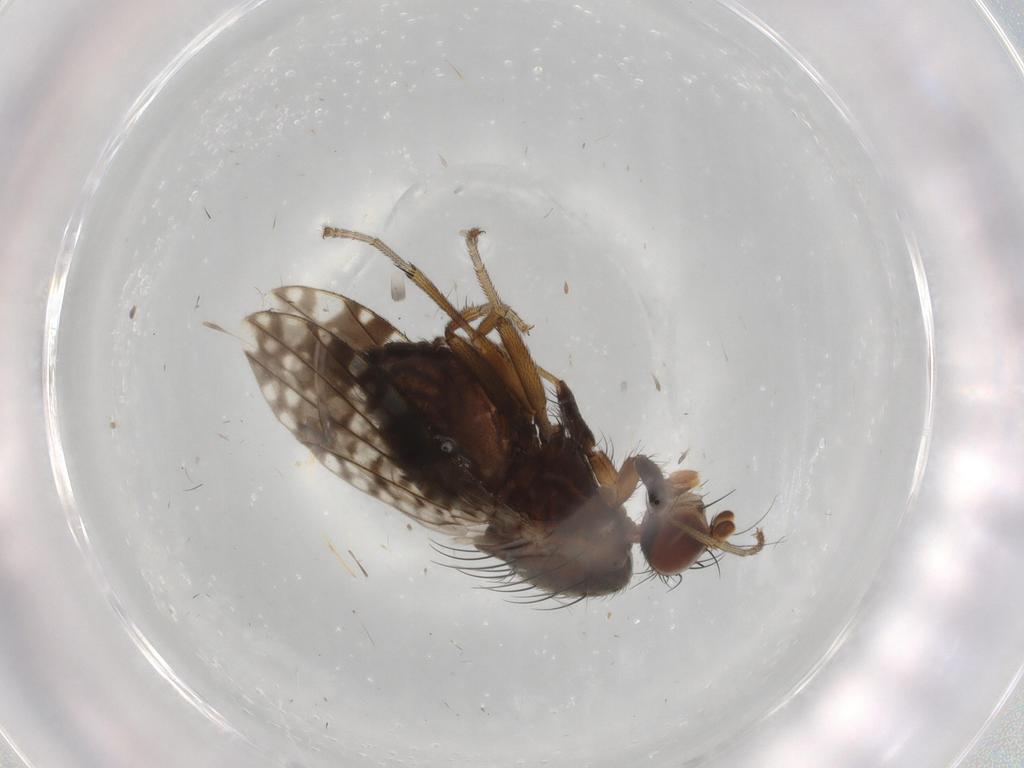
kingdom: Animalia
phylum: Arthropoda
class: Insecta
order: Diptera
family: Tephritidae
